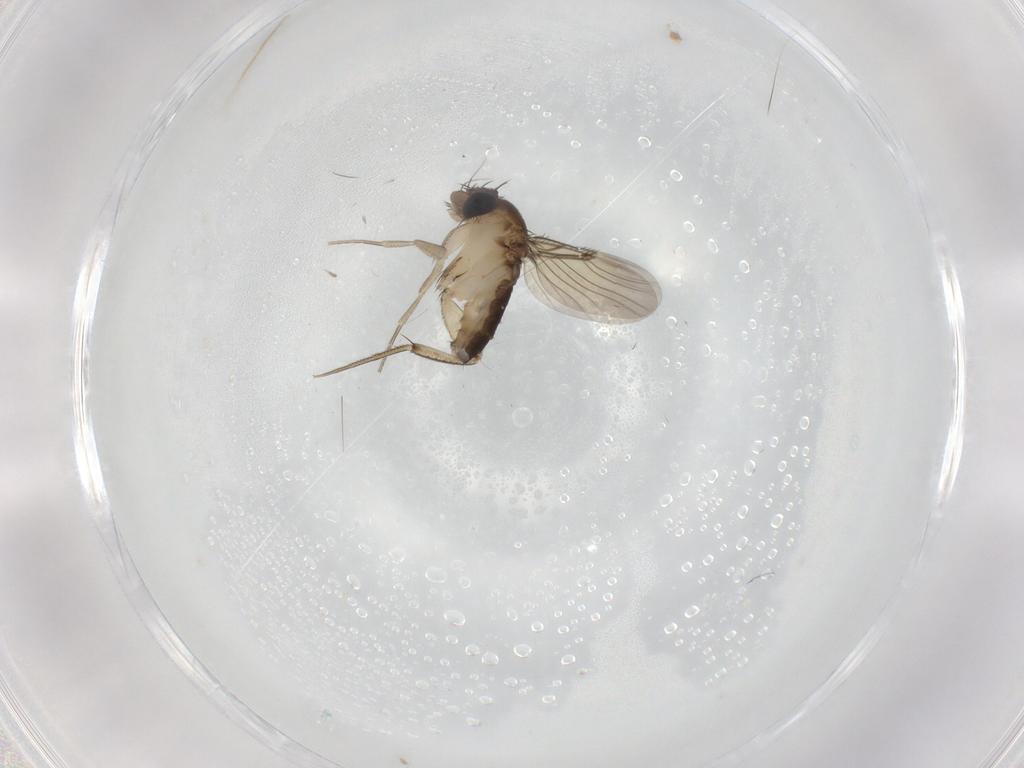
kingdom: Animalia
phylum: Arthropoda
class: Insecta
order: Diptera
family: Phoridae
